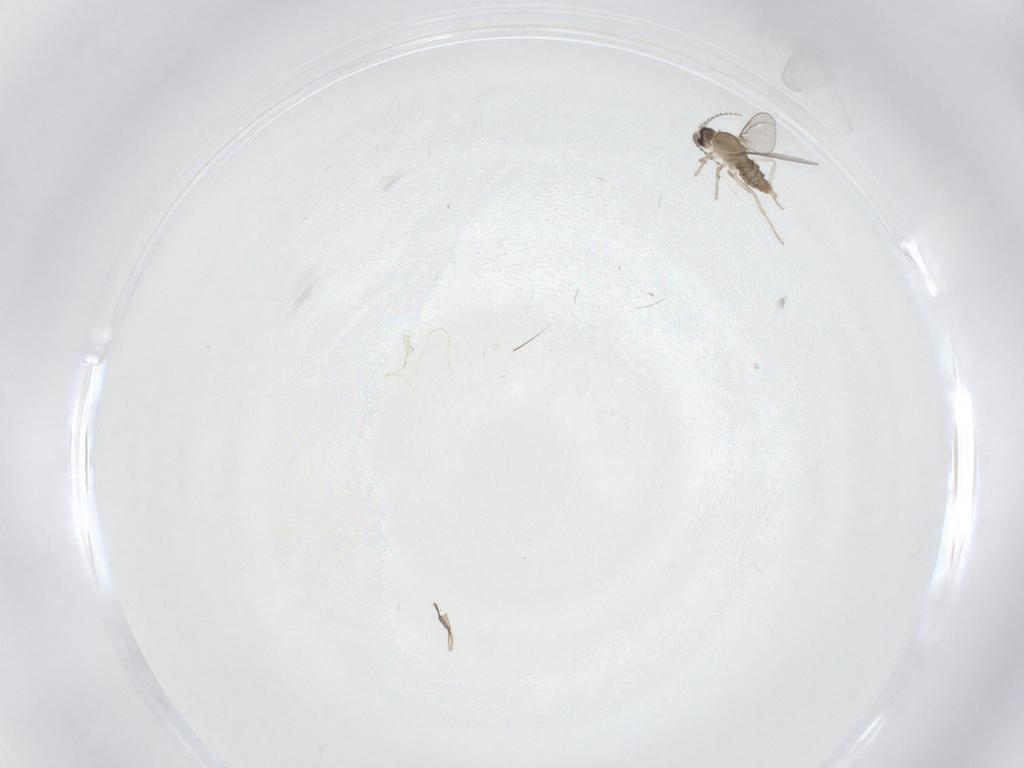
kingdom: Animalia
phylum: Arthropoda
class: Insecta
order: Diptera
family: Cecidomyiidae
